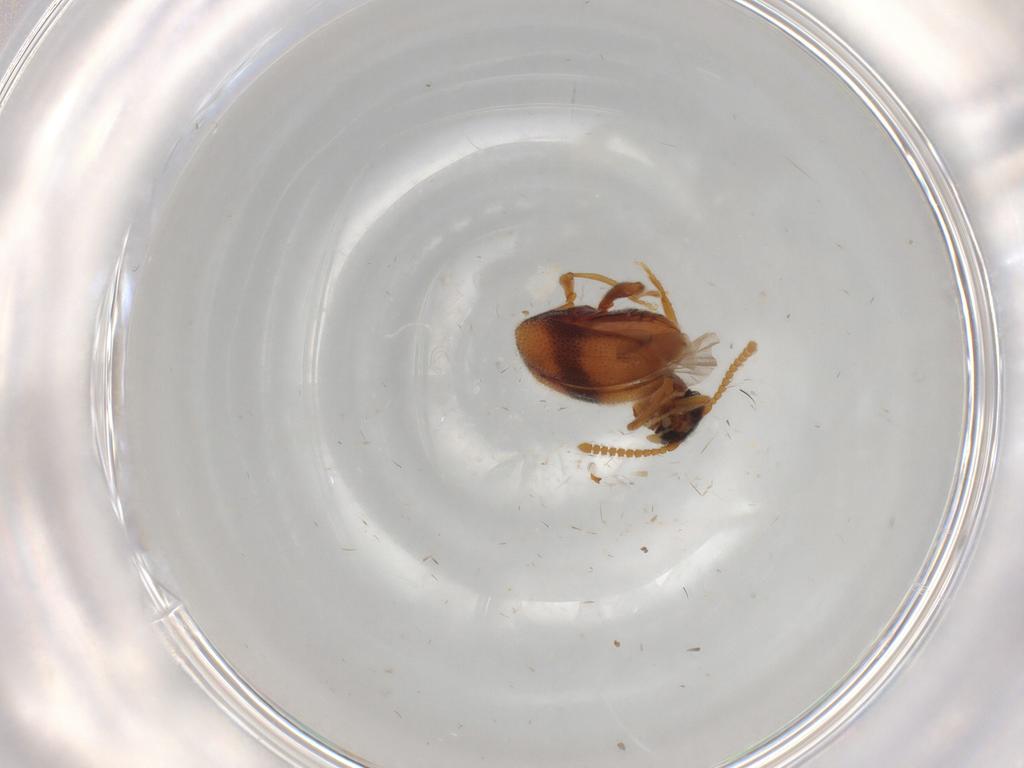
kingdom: Animalia
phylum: Arthropoda
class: Insecta
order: Coleoptera
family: Aderidae
